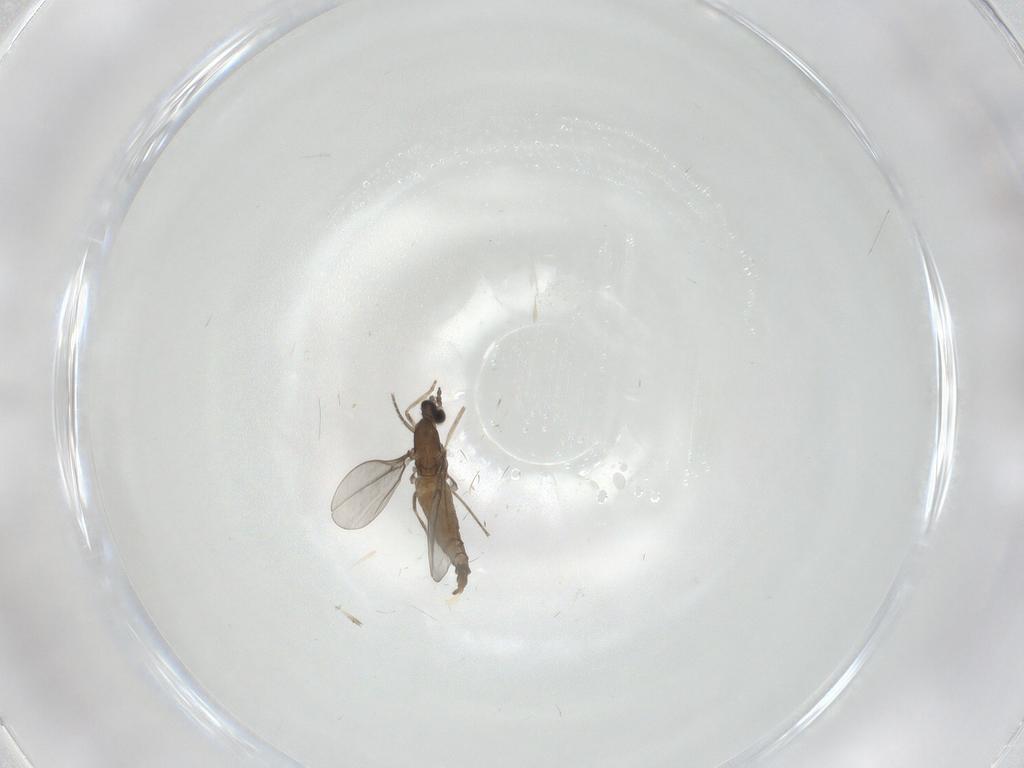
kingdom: Animalia
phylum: Arthropoda
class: Insecta
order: Diptera
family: Cecidomyiidae
